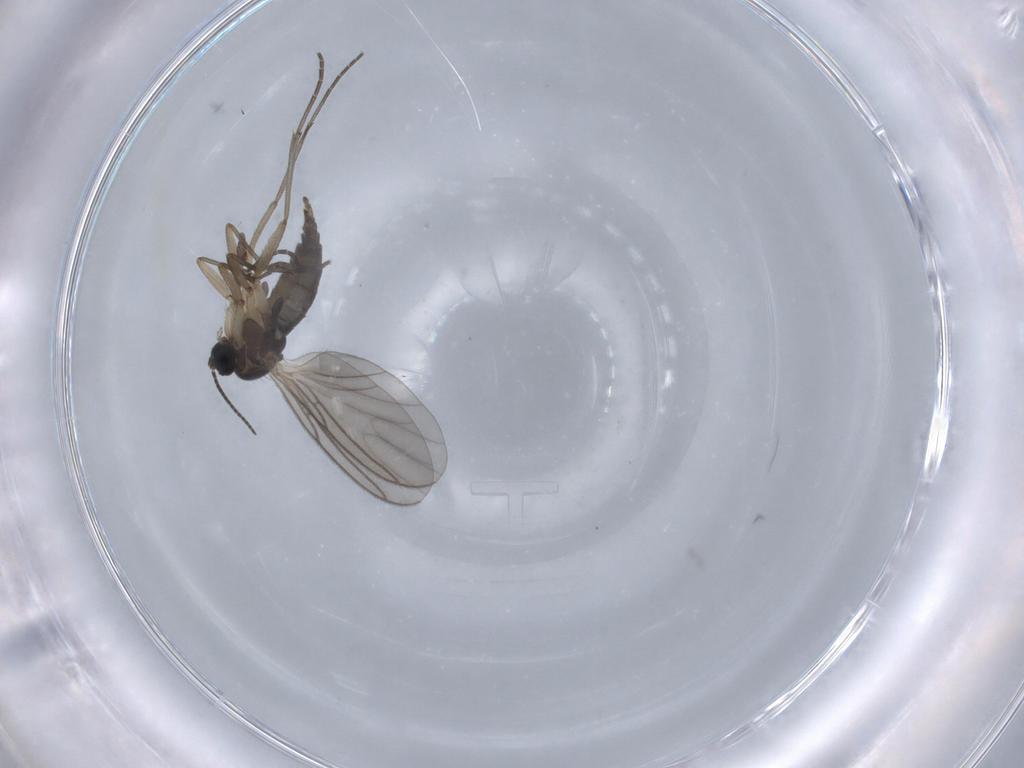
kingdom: Animalia
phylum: Arthropoda
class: Insecta
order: Diptera
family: Sciaridae
